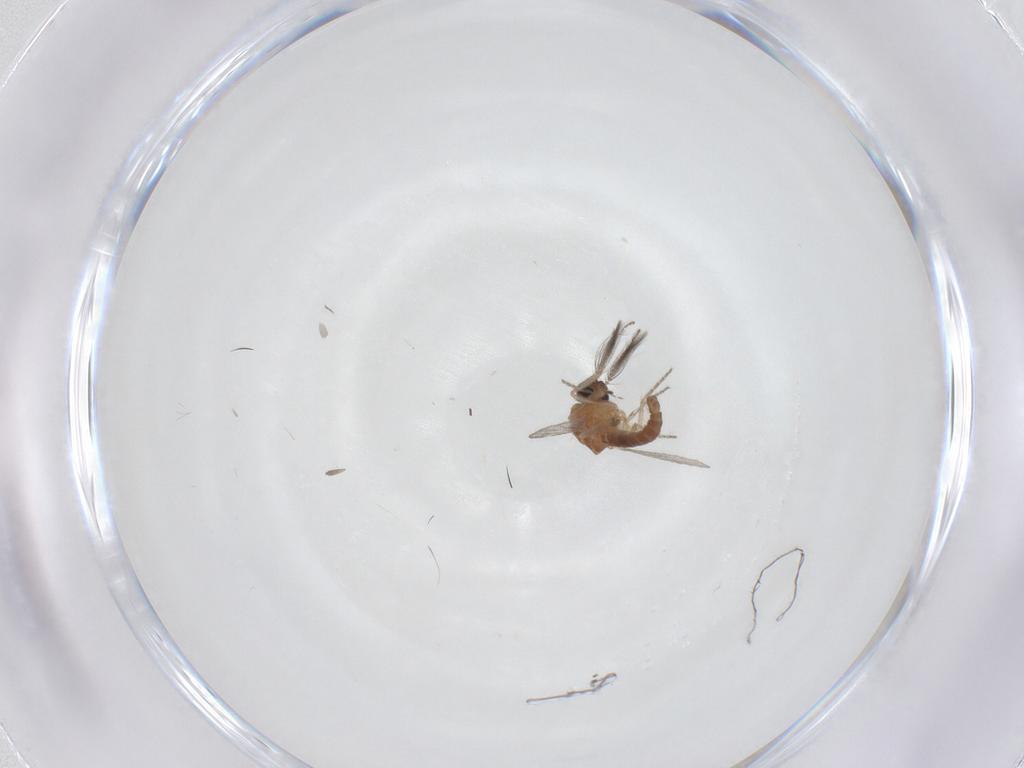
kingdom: Animalia
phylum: Arthropoda
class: Insecta
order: Diptera
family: Ceratopogonidae
